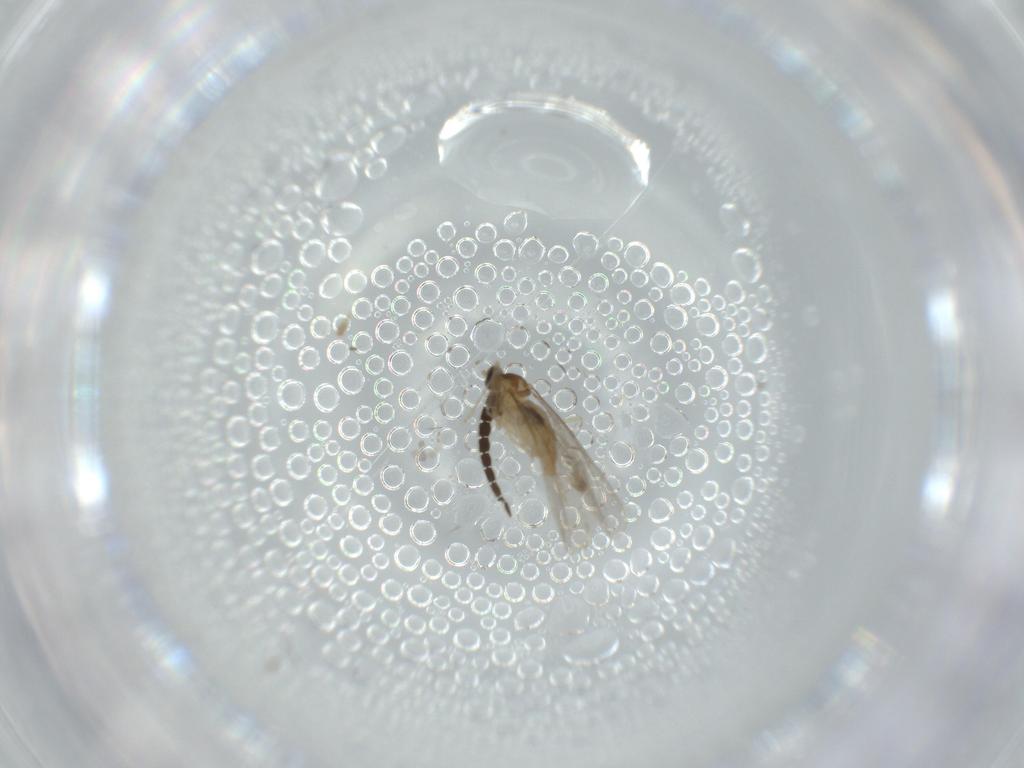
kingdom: Animalia
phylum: Arthropoda
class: Insecta
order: Diptera
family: Mycetophilidae
